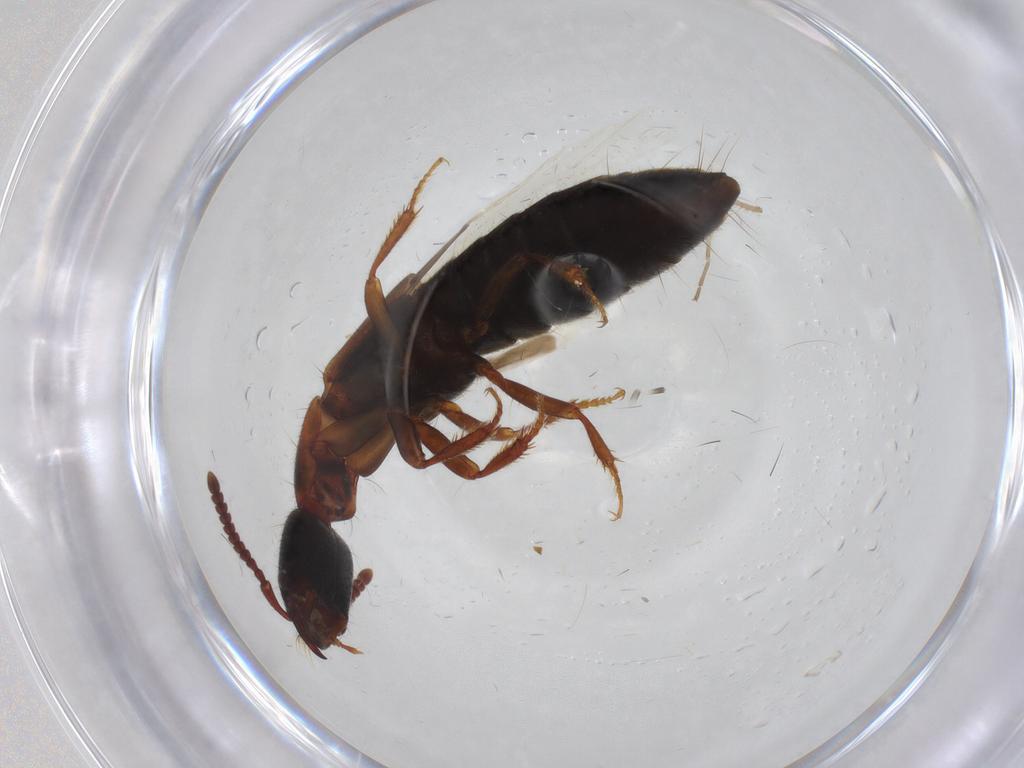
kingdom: Animalia
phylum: Arthropoda
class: Insecta
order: Coleoptera
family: Staphylinidae
